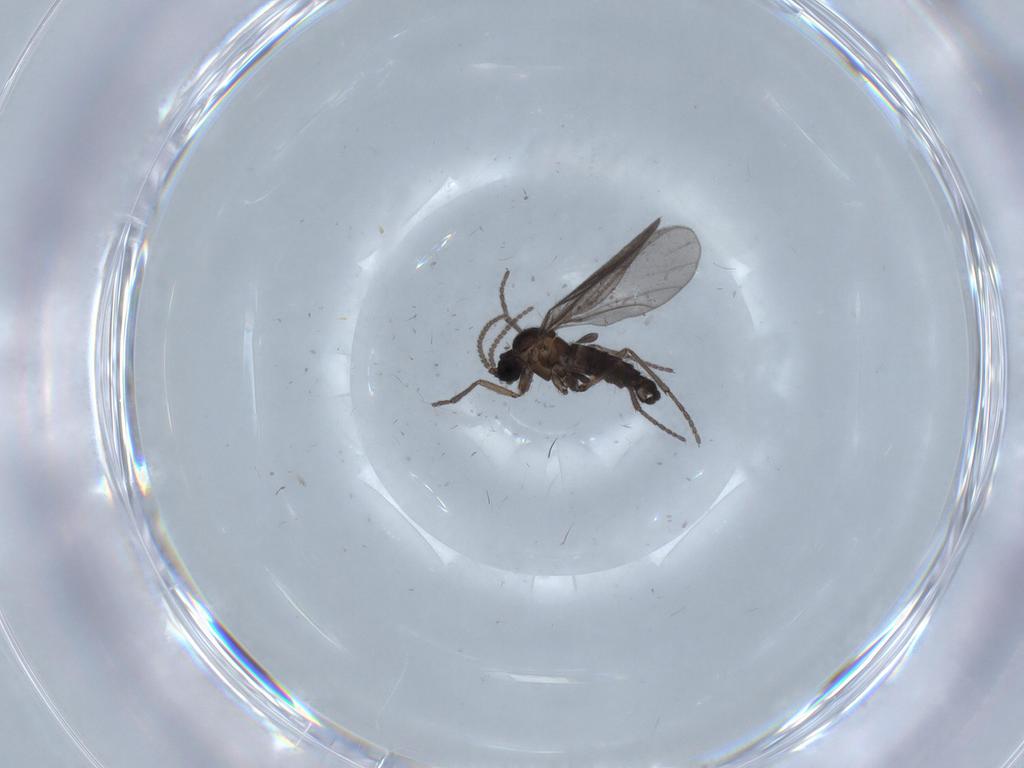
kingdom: Animalia
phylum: Arthropoda
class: Insecta
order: Diptera
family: Sciaridae
